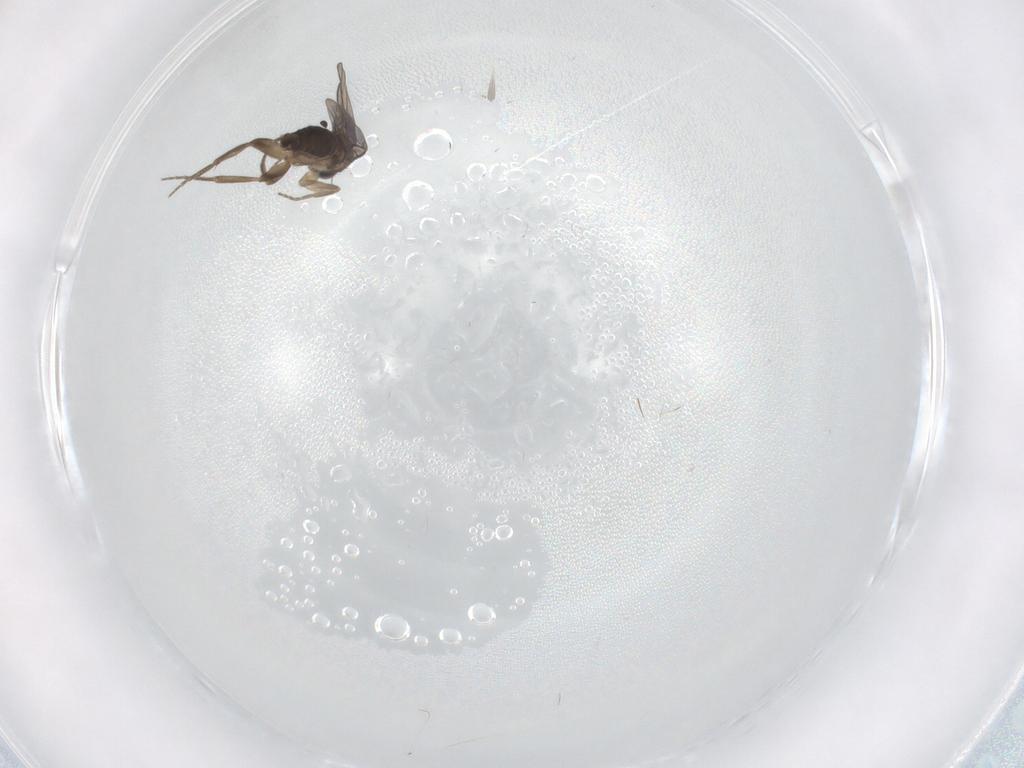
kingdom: Animalia
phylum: Arthropoda
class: Insecta
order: Diptera
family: Phoridae
